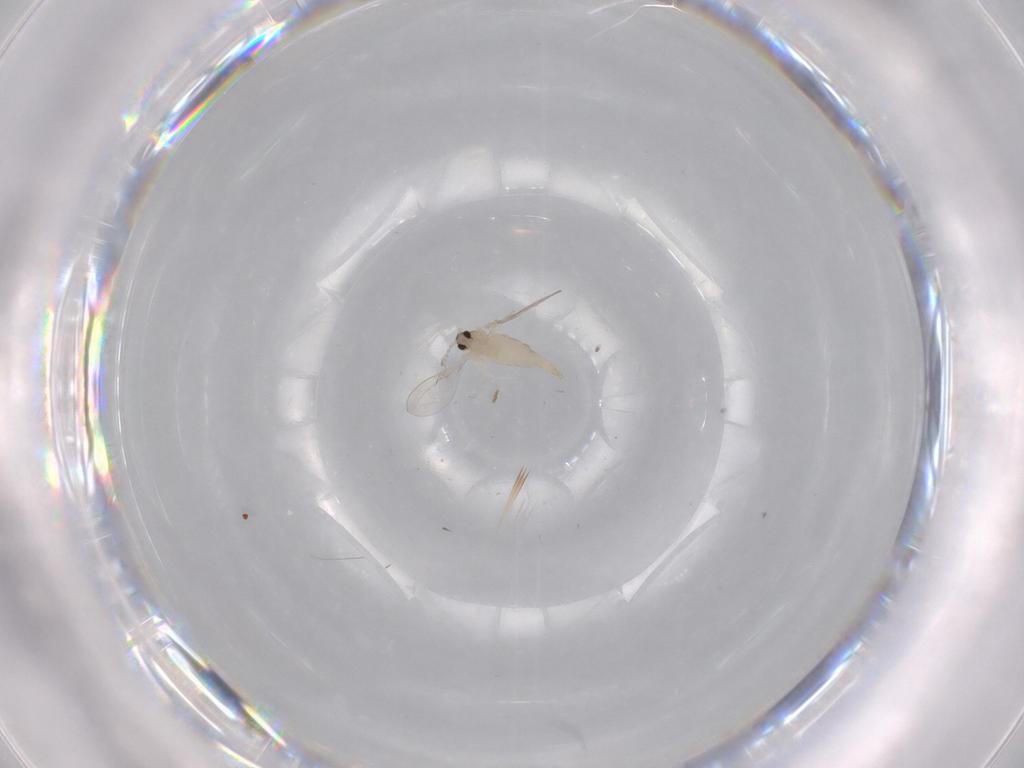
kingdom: Animalia
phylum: Arthropoda
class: Insecta
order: Diptera
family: Cecidomyiidae
